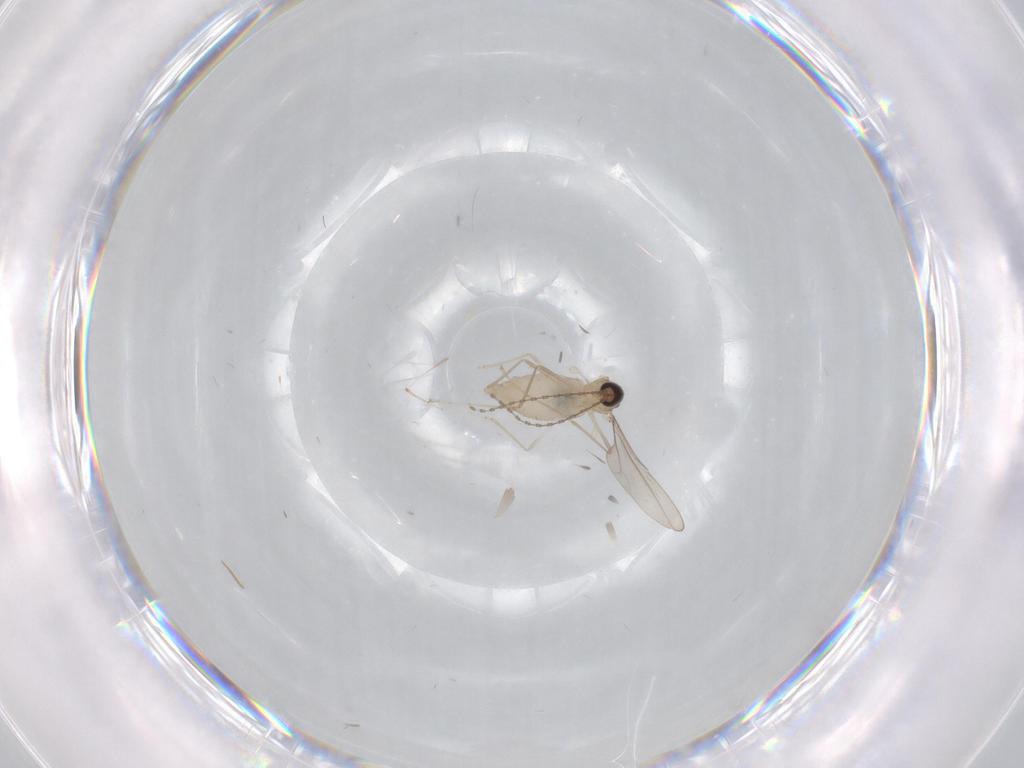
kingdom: Animalia
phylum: Arthropoda
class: Insecta
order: Diptera
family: Cecidomyiidae
